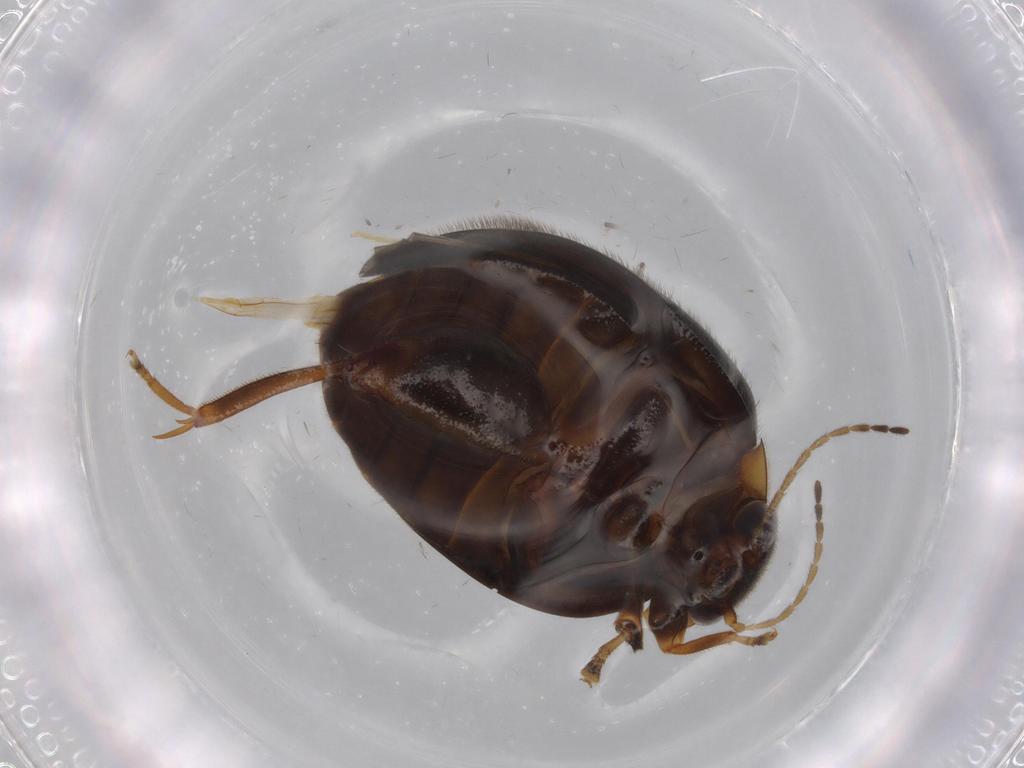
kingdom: Animalia
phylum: Arthropoda
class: Insecta
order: Coleoptera
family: Scirtidae
